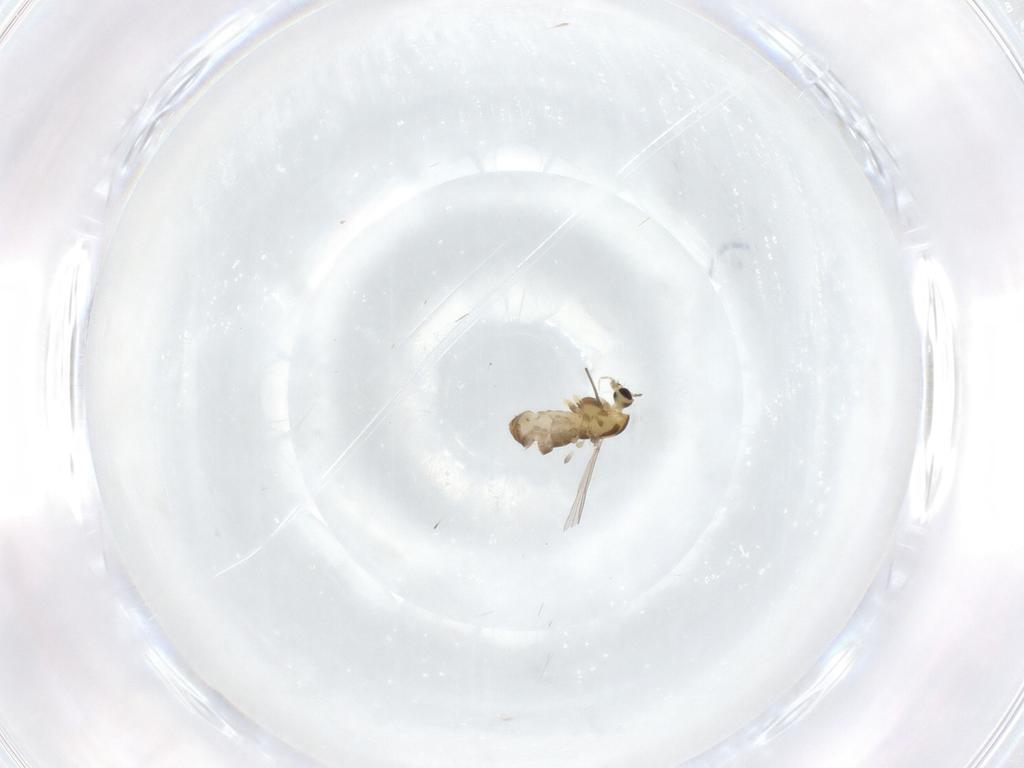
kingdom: Animalia
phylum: Arthropoda
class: Insecta
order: Diptera
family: Chironomidae
